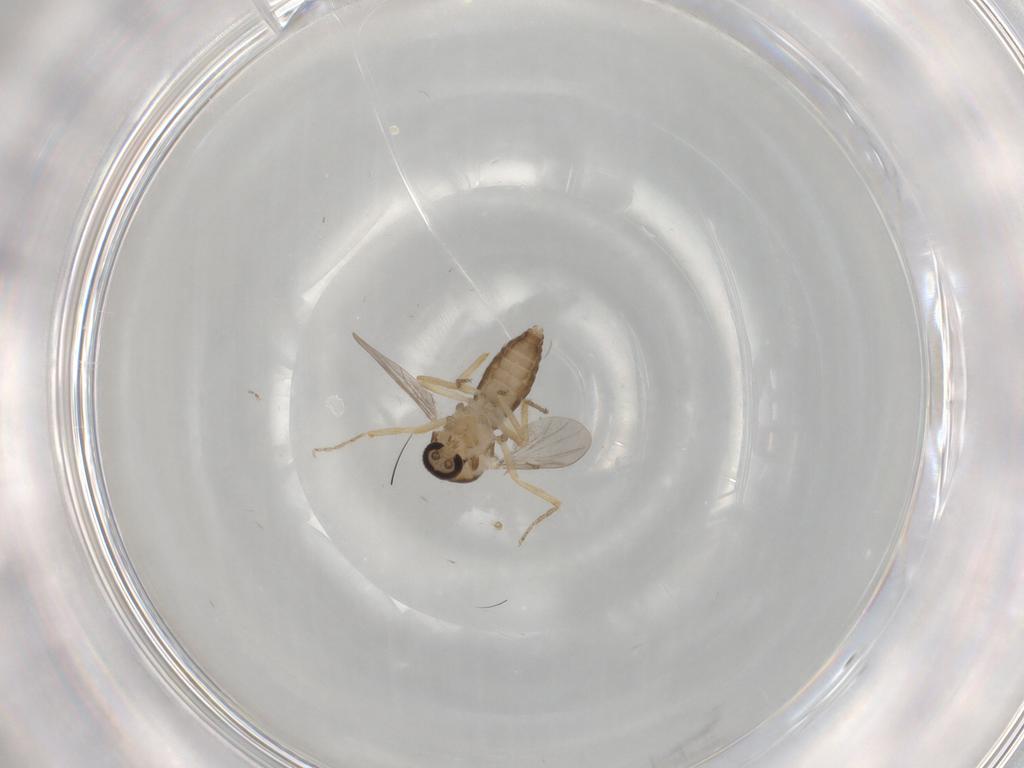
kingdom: Animalia
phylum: Arthropoda
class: Insecta
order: Diptera
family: Ceratopogonidae
